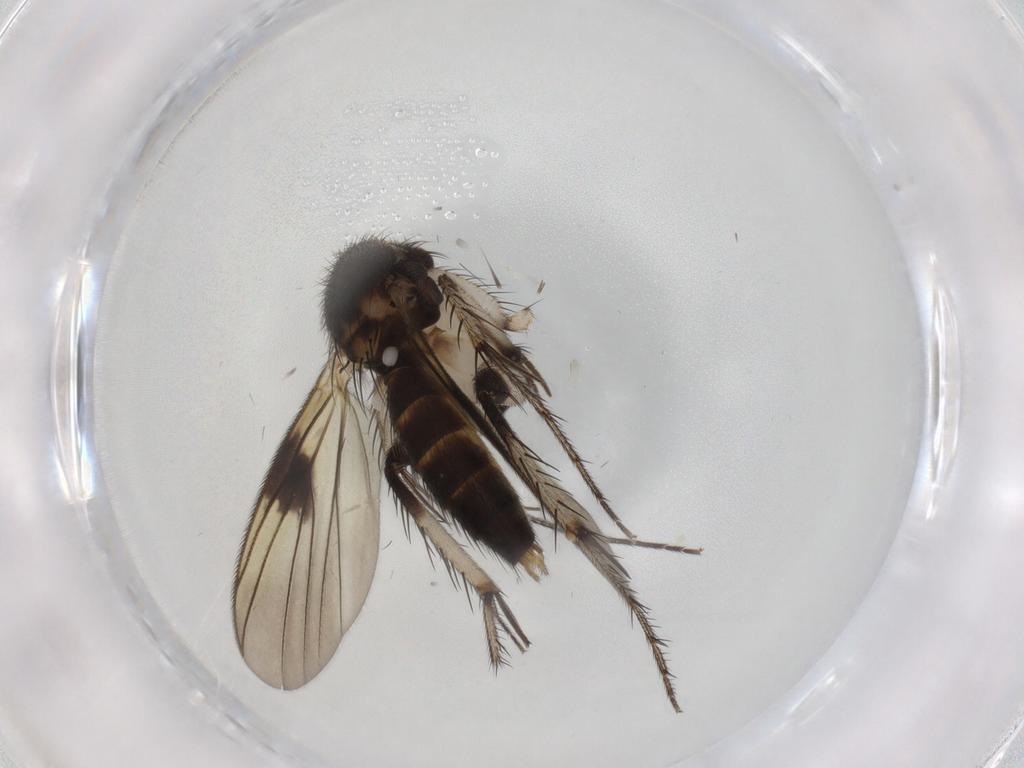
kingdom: Animalia
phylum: Arthropoda
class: Insecta
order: Diptera
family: Mycetophilidae
